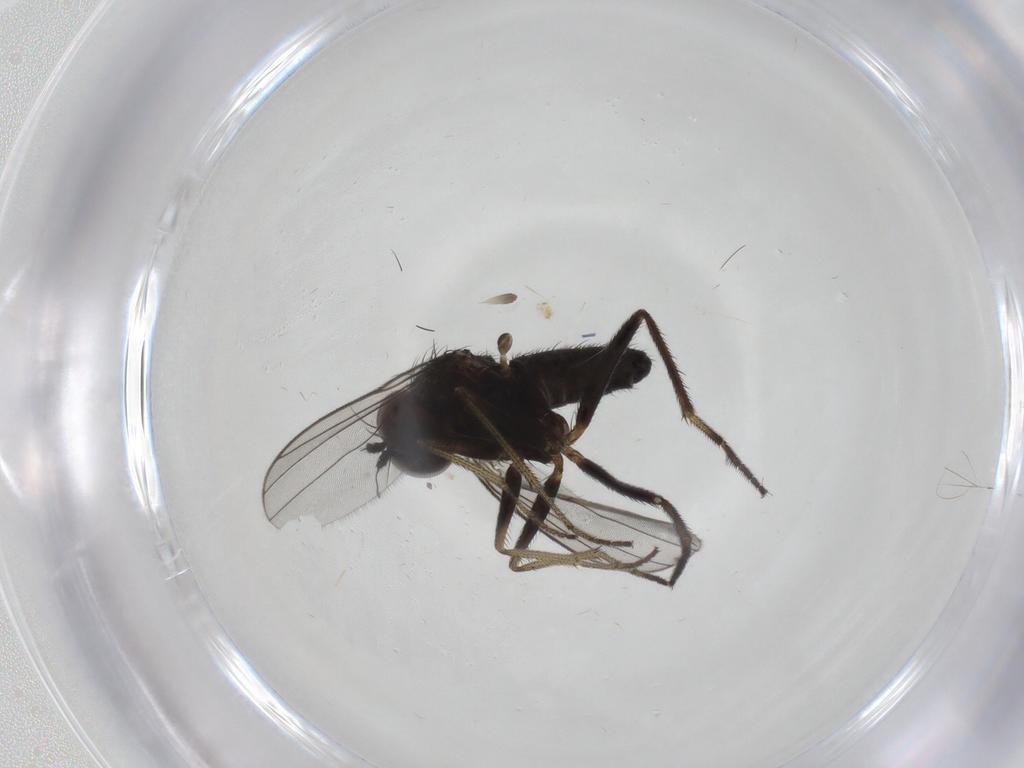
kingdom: Animalia
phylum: Arthropoda
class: Insecta
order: Diptera
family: Dolichopodidae
